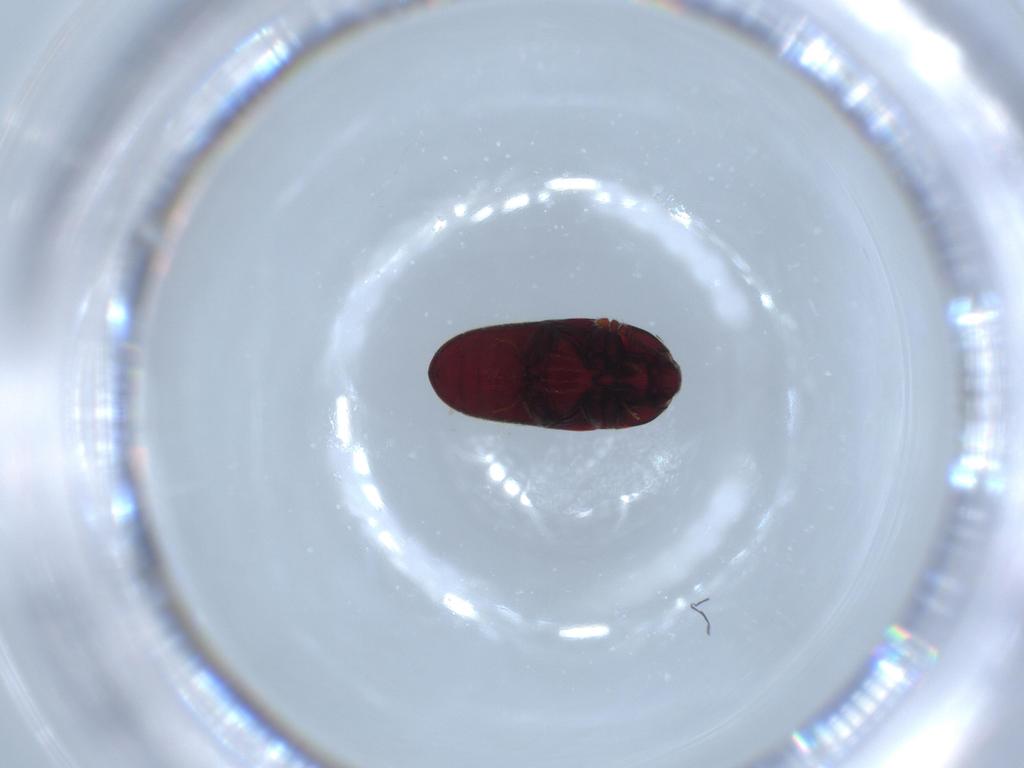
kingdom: Animalia
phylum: Arthropoda
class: Insecta
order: Coleoptera
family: Throscidae
